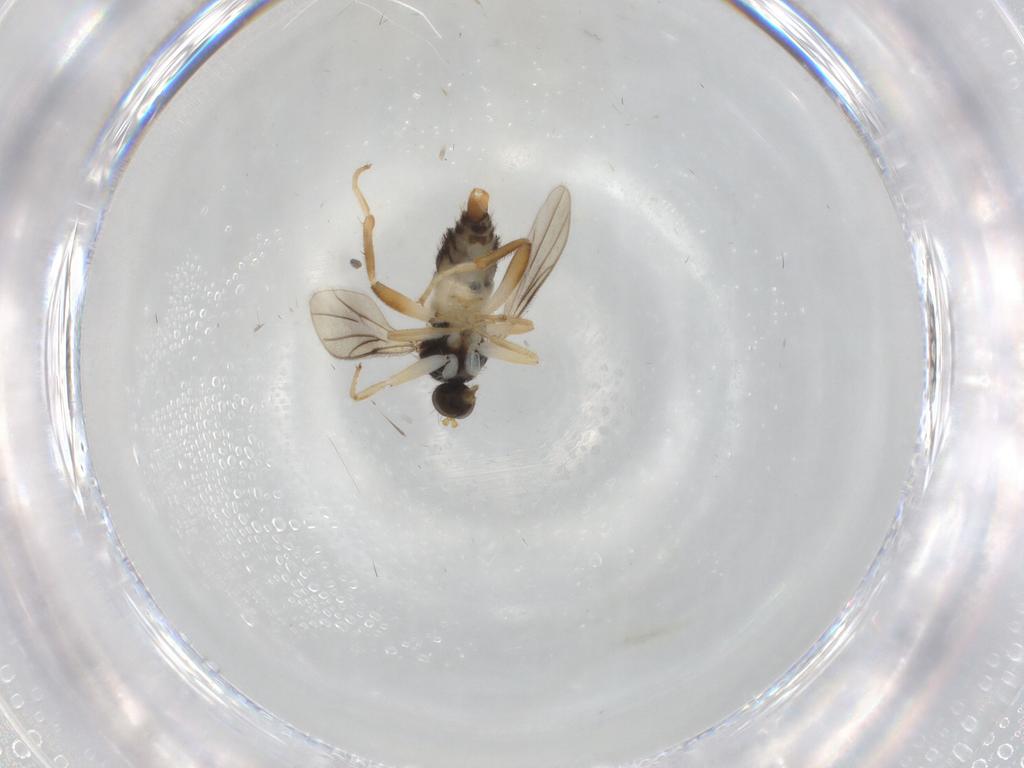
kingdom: Animalia
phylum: Arthropoda
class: Insecta
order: Diptera
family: Hybotidae
